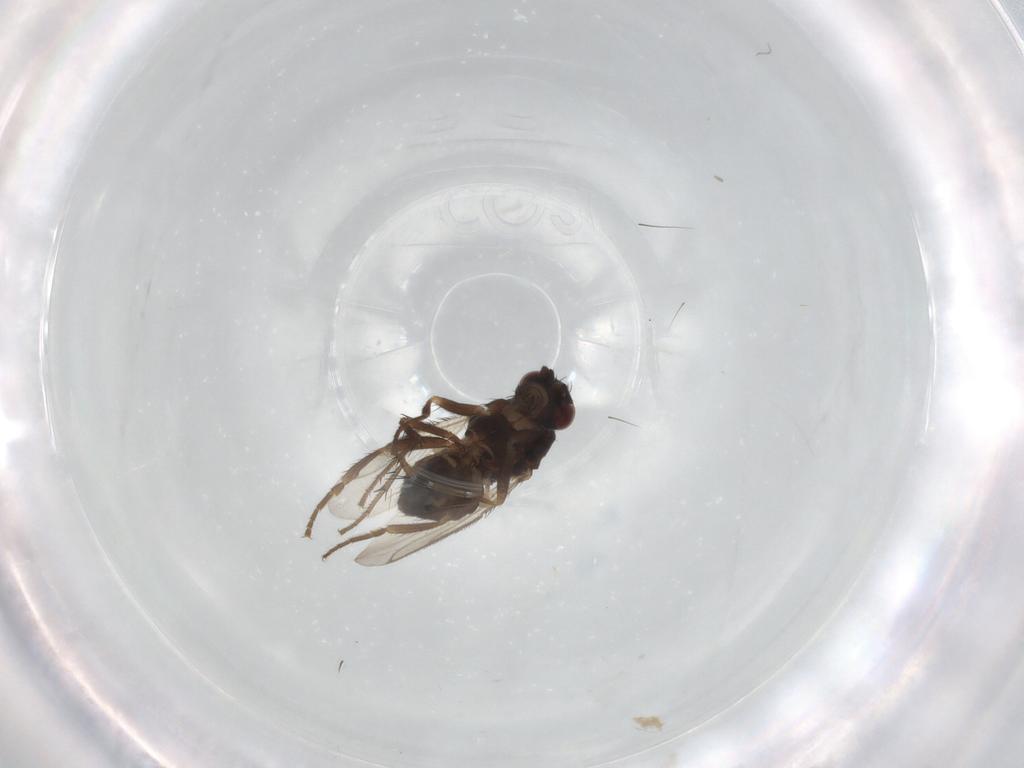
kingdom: Animalia
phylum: Arthropoda
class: Insecta
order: Diptera
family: Sphaeroceridae
